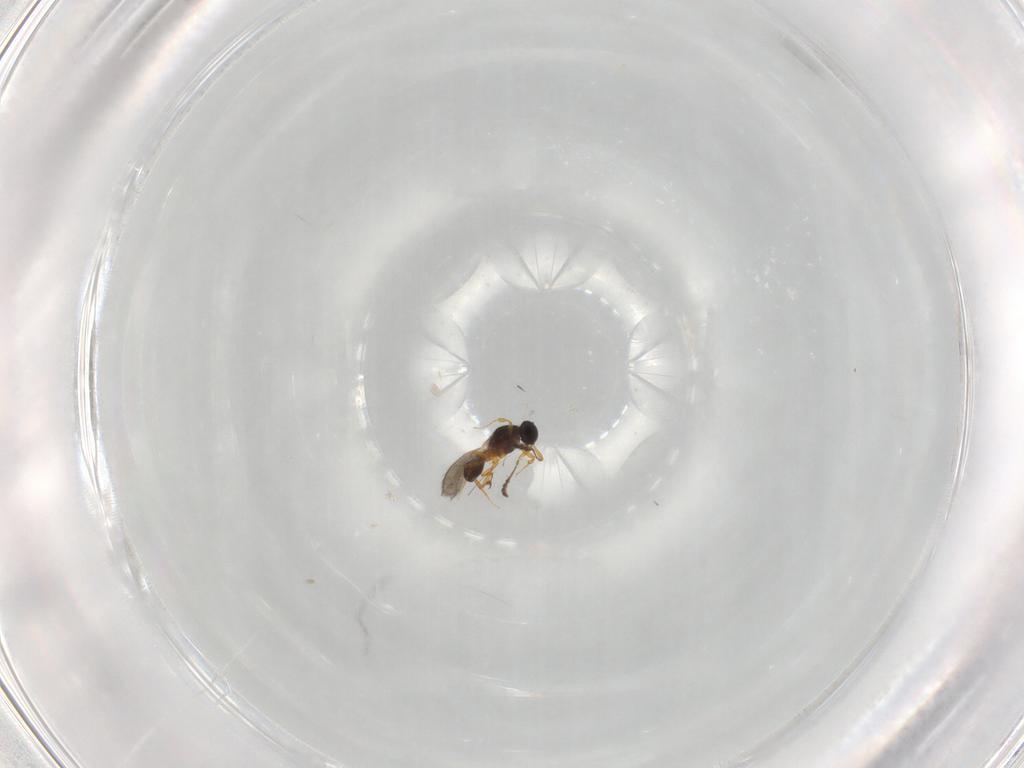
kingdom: Animalia
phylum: Arthropoda
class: Insecta
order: Hymenoptera
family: Platygastridae
